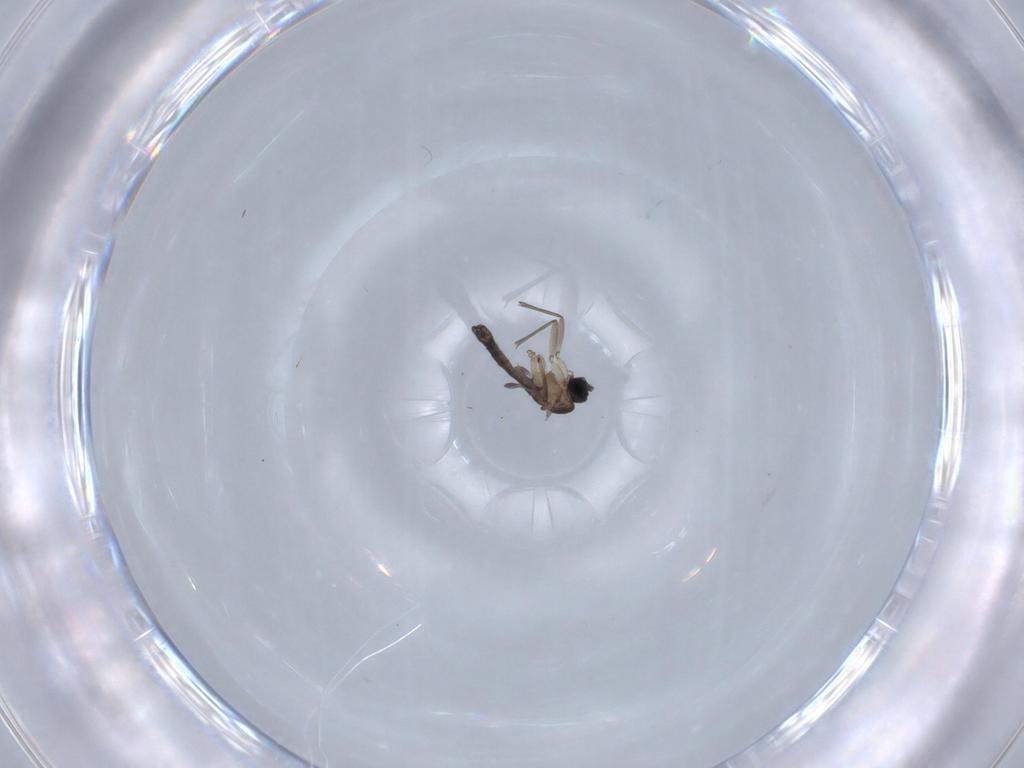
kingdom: Animalia
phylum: Arthropoda
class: Insecta
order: Diptera
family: Sciaridae
